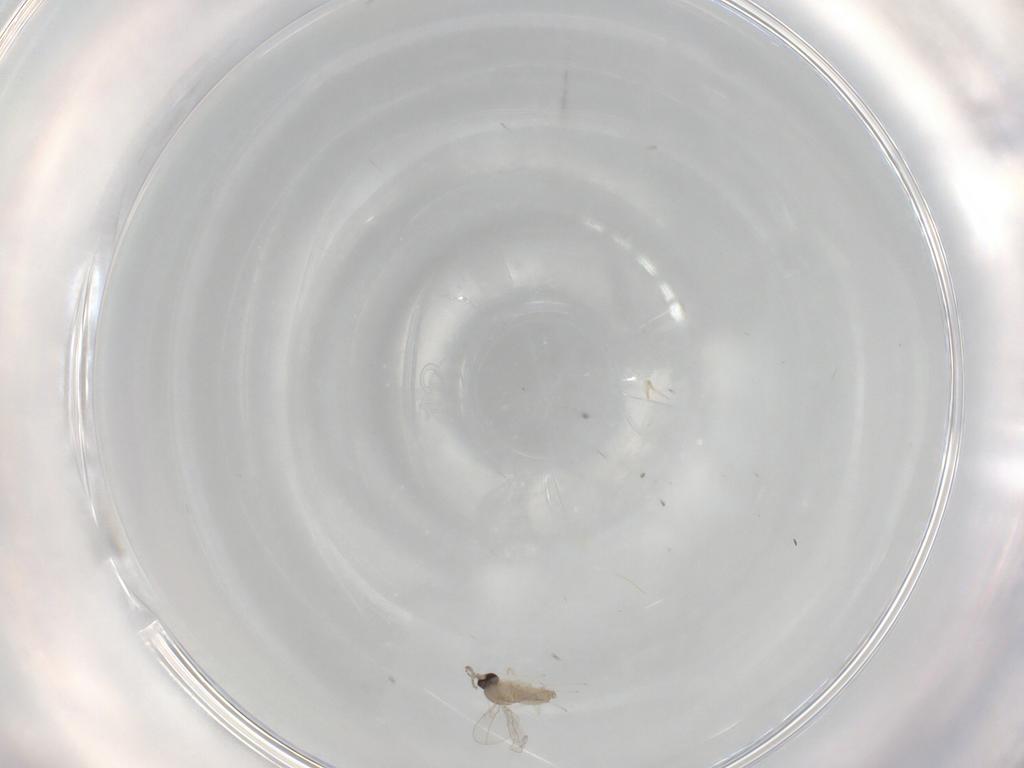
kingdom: Animalia
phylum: Arthropoda
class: Insecta
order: Diptera
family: Cecidomyiidae
